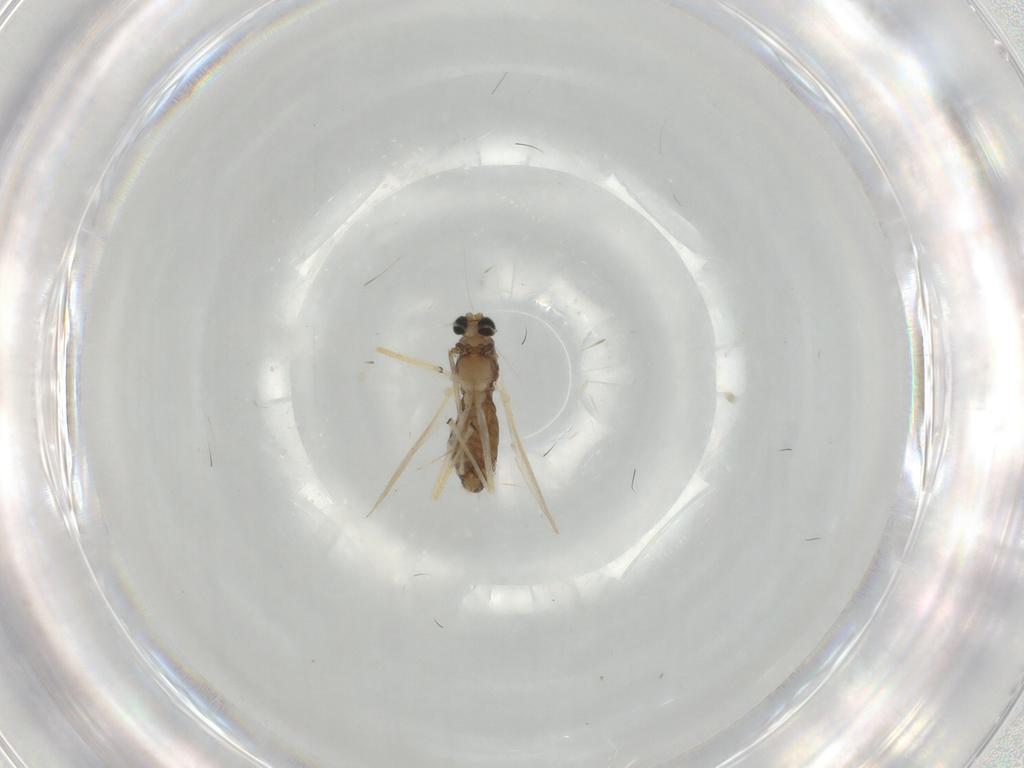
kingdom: Animalia
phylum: Arthropoda
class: Insecta
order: Diptera
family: Chironomidae
